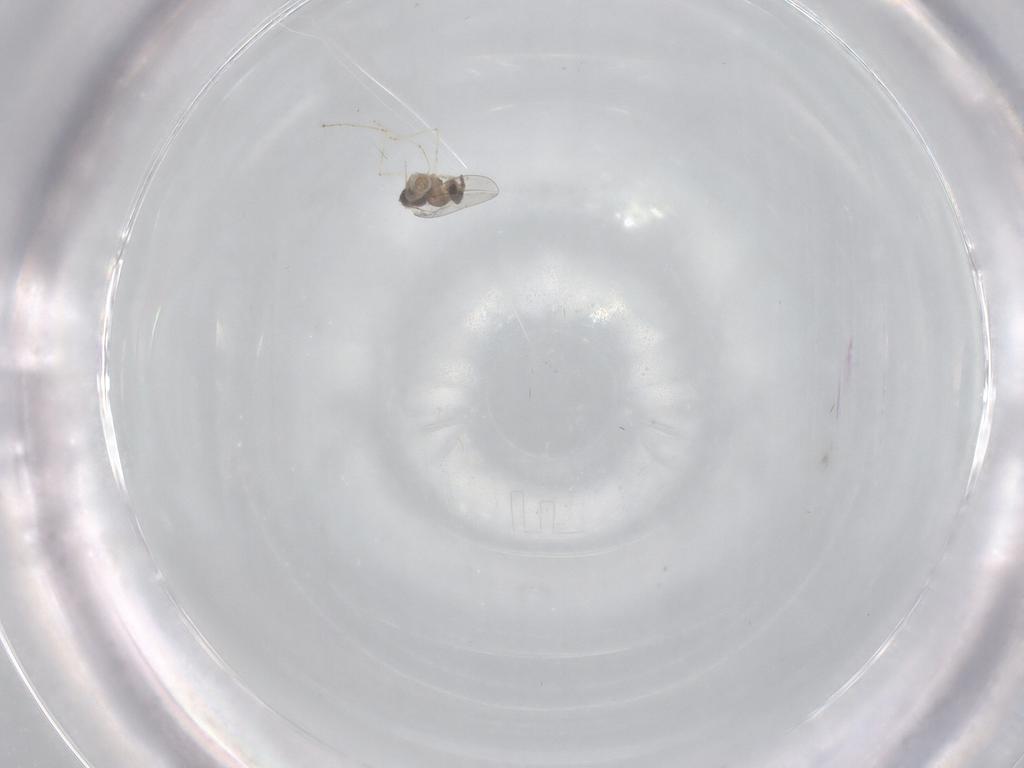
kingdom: Animalia
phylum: Arthropoda
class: Insecta
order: Diptera
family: Cecidomyiidae
